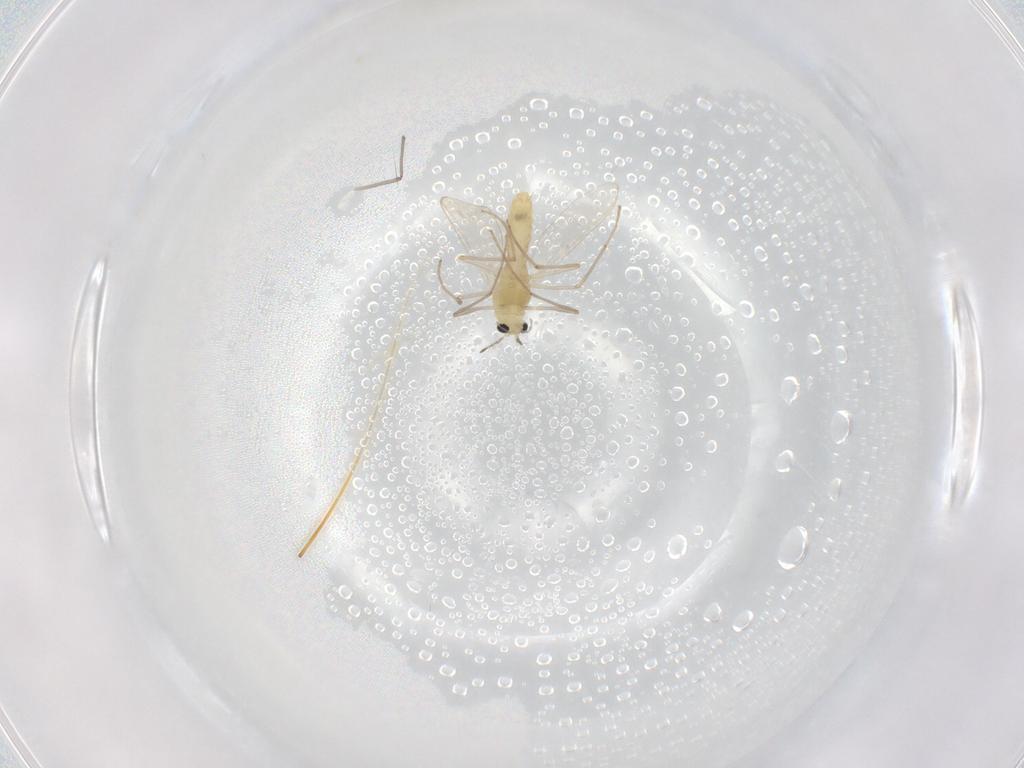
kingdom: Animalia
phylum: Arthropoda
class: Insecta
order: Diptera
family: Chironomidae
